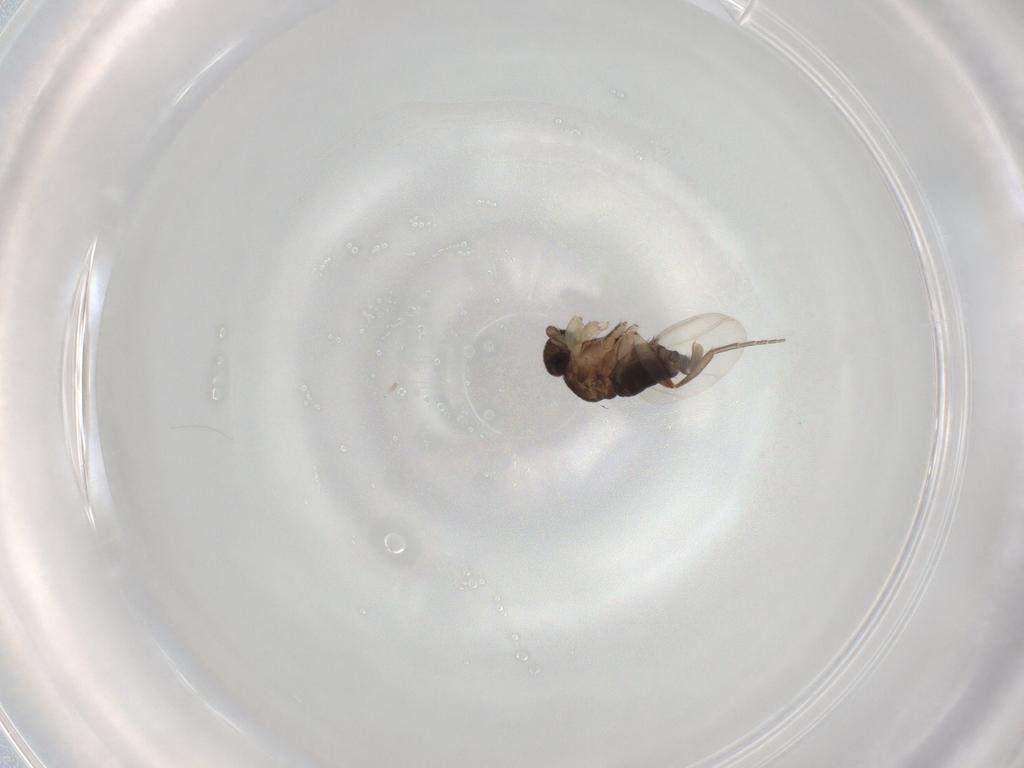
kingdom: Animalia
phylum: Arthropoda
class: Insecta
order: Diptera
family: Phoridae
